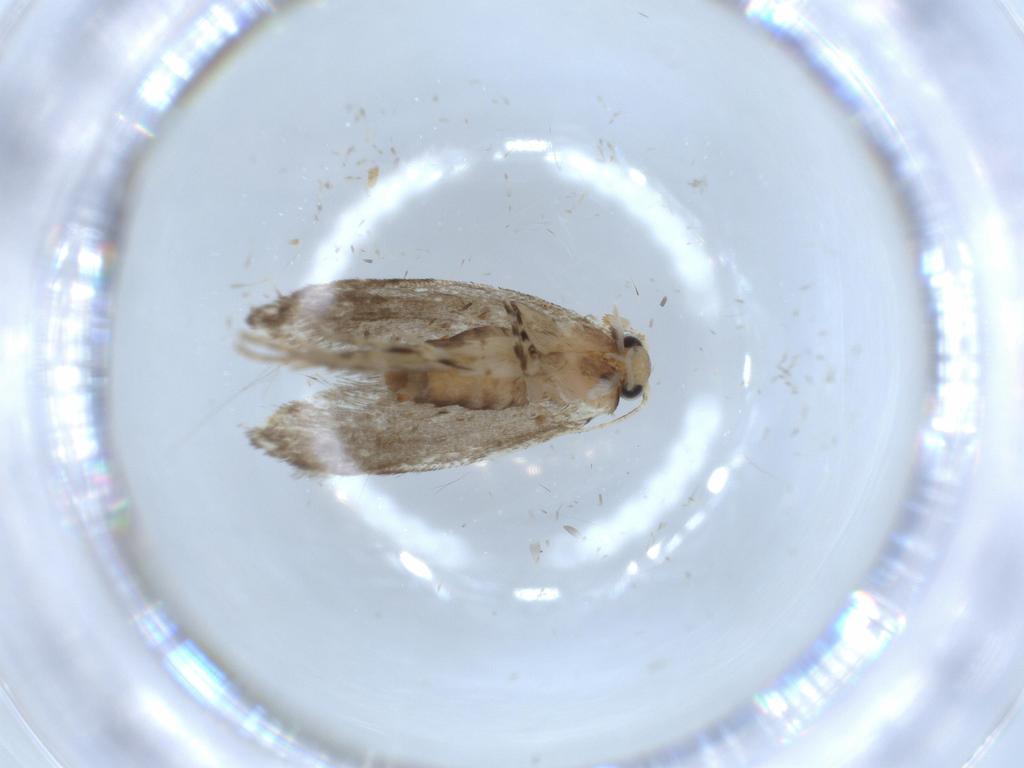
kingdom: Animalia
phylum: Arthropoda
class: Insecta
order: Lepidoptera
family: Tineidae
